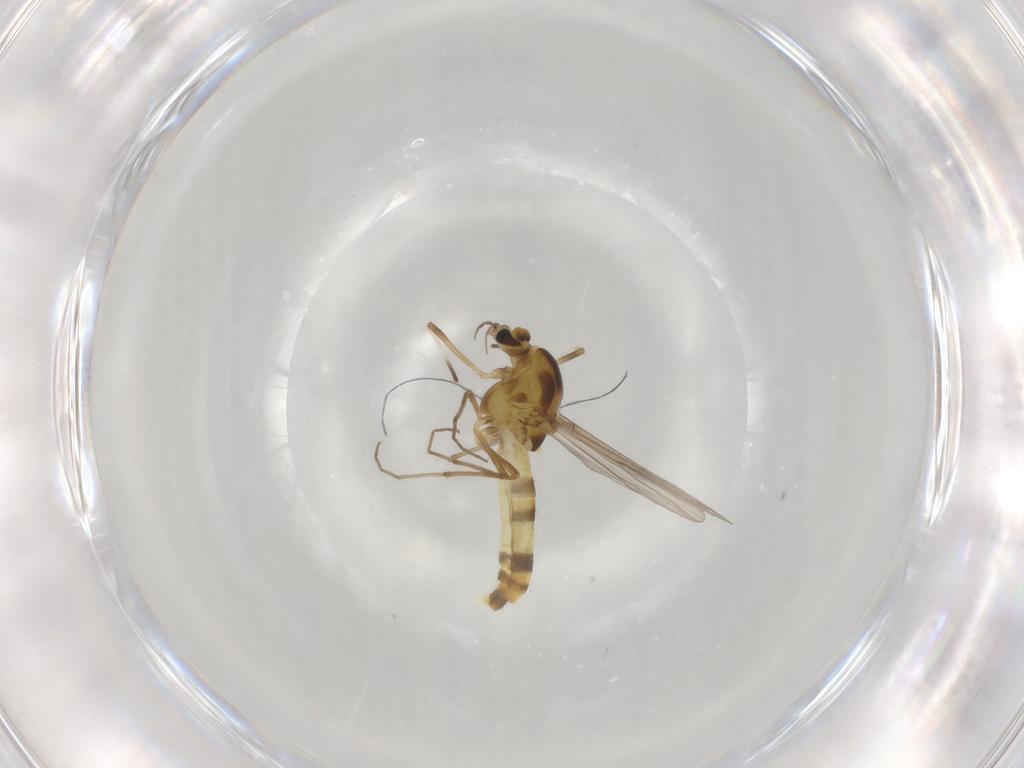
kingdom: Animalia
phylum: Arthropoda
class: Insecta
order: Diptera
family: Chironomidae
